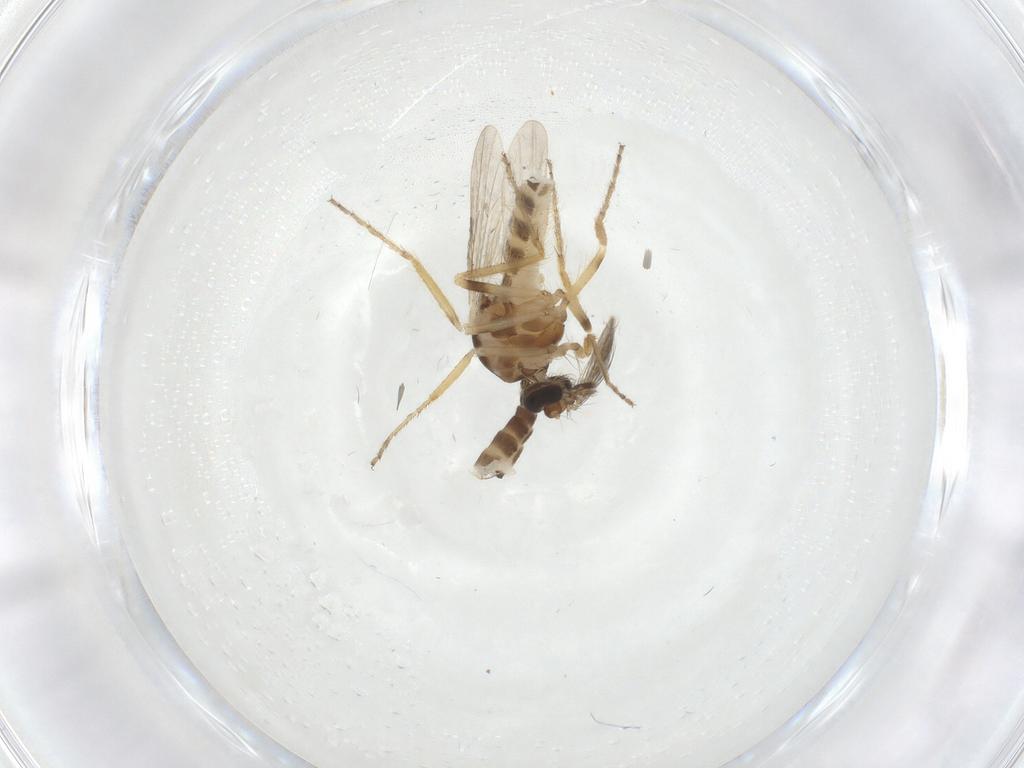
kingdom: Animalia
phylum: Arthropoda
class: Insecta
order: Diptera
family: Ceratopogonidae
